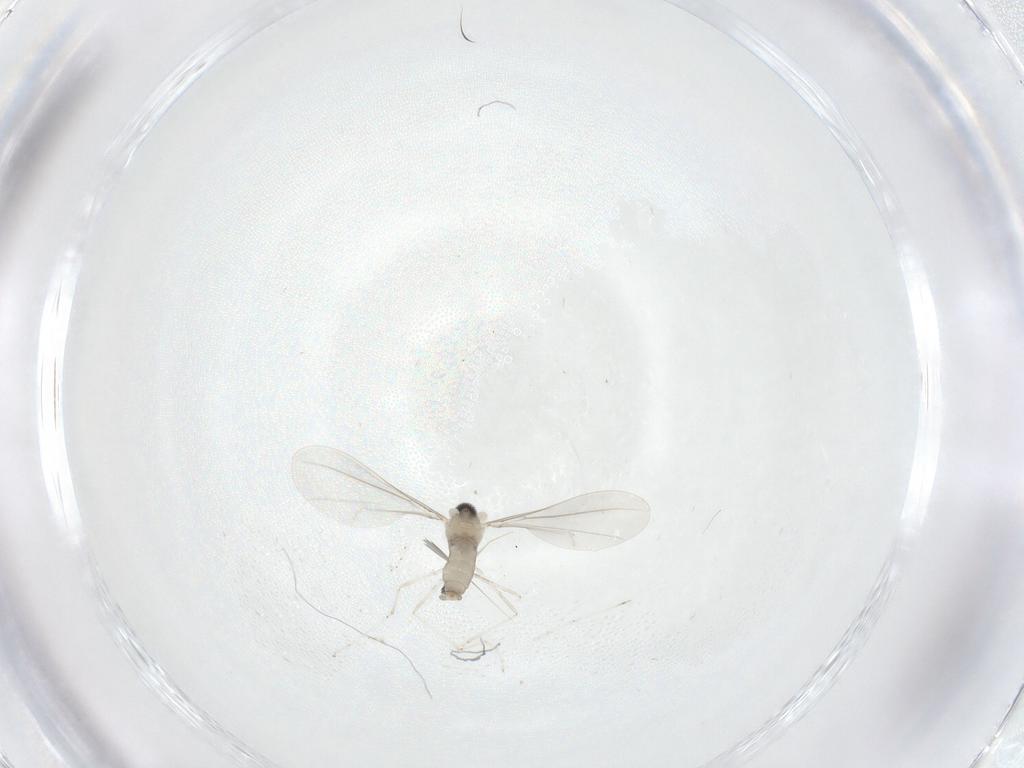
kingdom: Animalia
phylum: Arthropoda
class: Insecta
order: Diptera
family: Cecidomyiidae
